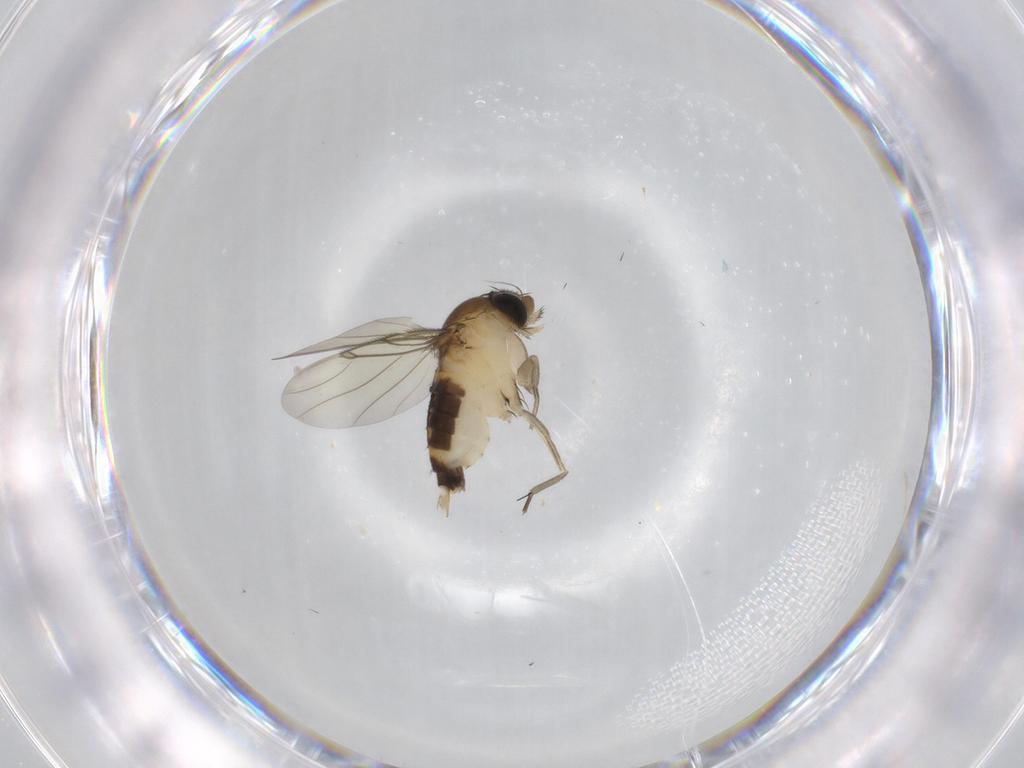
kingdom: Animalia
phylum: Arthropoda
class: Insecta
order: Diptera
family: Phoridae
